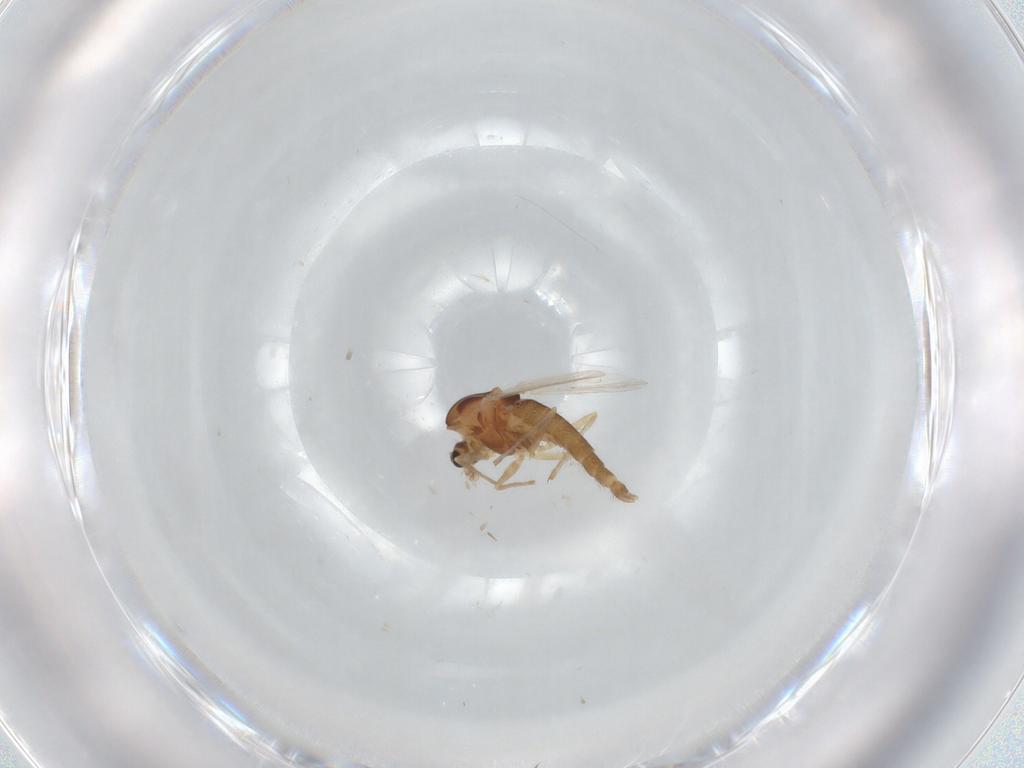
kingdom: Animalia
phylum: Arthropoda
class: Insecta
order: Diptera
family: Chironomidae
